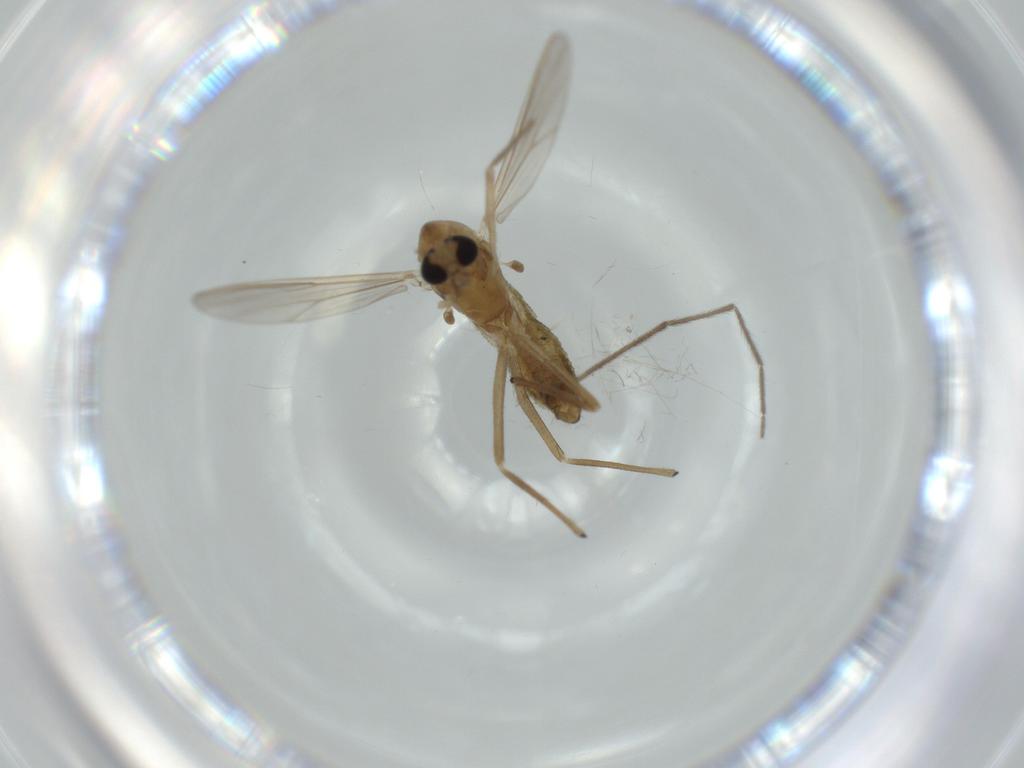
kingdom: Animalia
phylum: Arthropoda
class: Insecta
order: Diptera
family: Chironomidae
